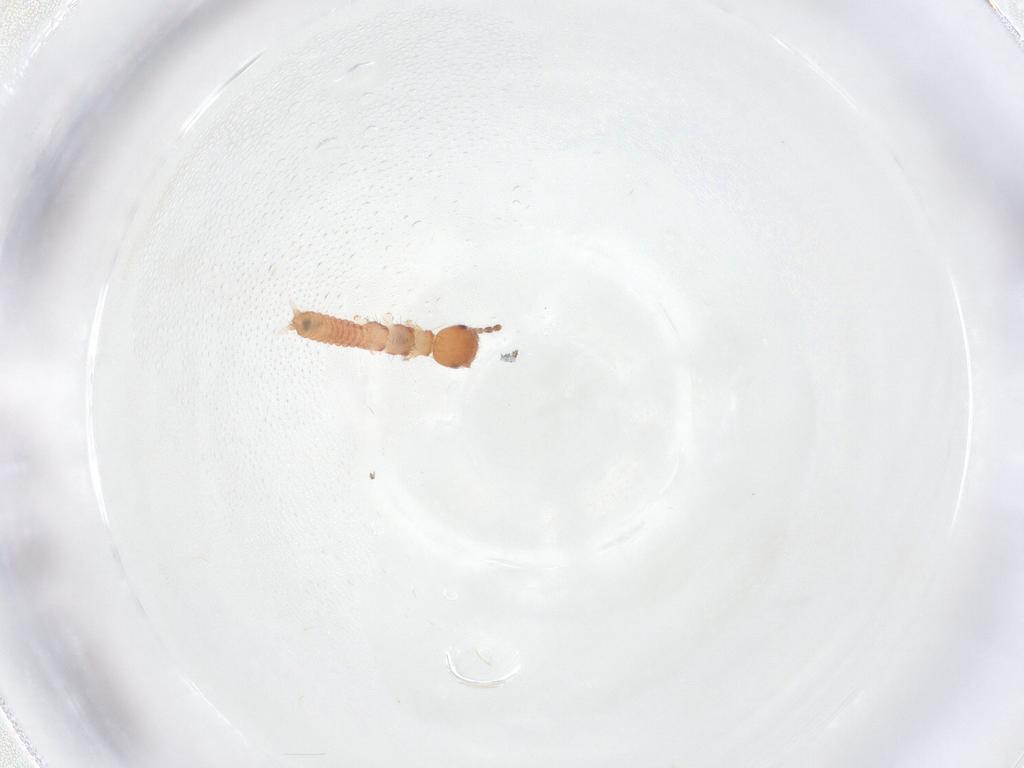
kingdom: Animalia
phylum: Arthropoda
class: Insecta
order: Embioptera
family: Anisembiidae
